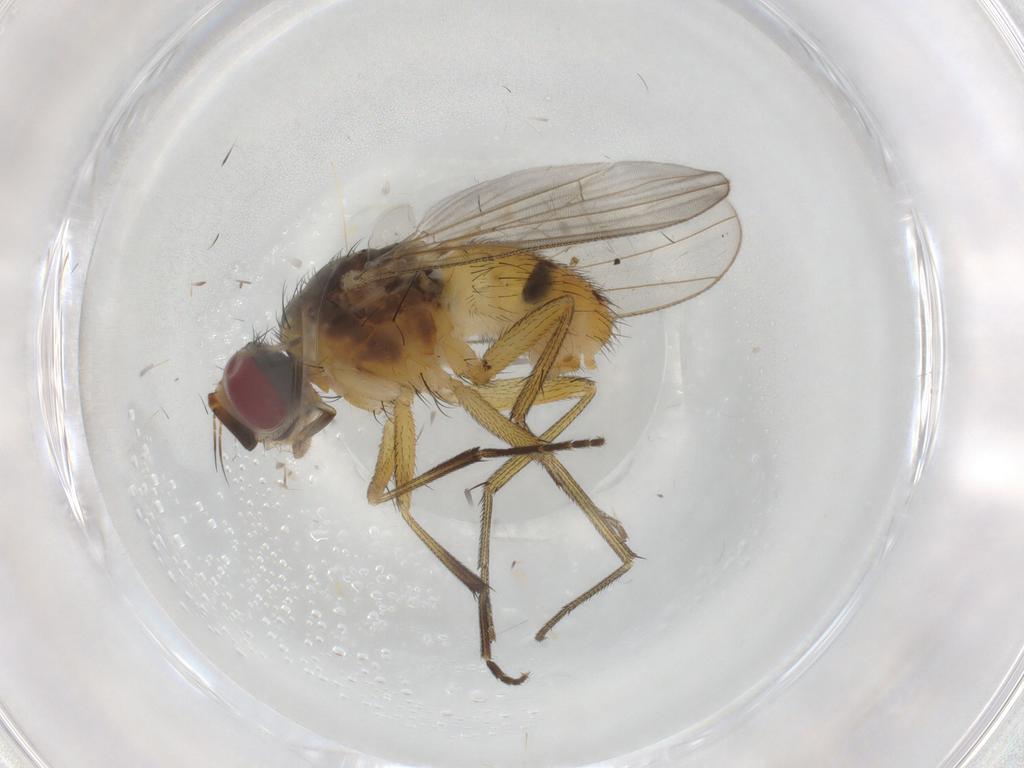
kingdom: Animalia
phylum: Arthropoda
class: Insecta
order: Diptera
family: Muscidae
